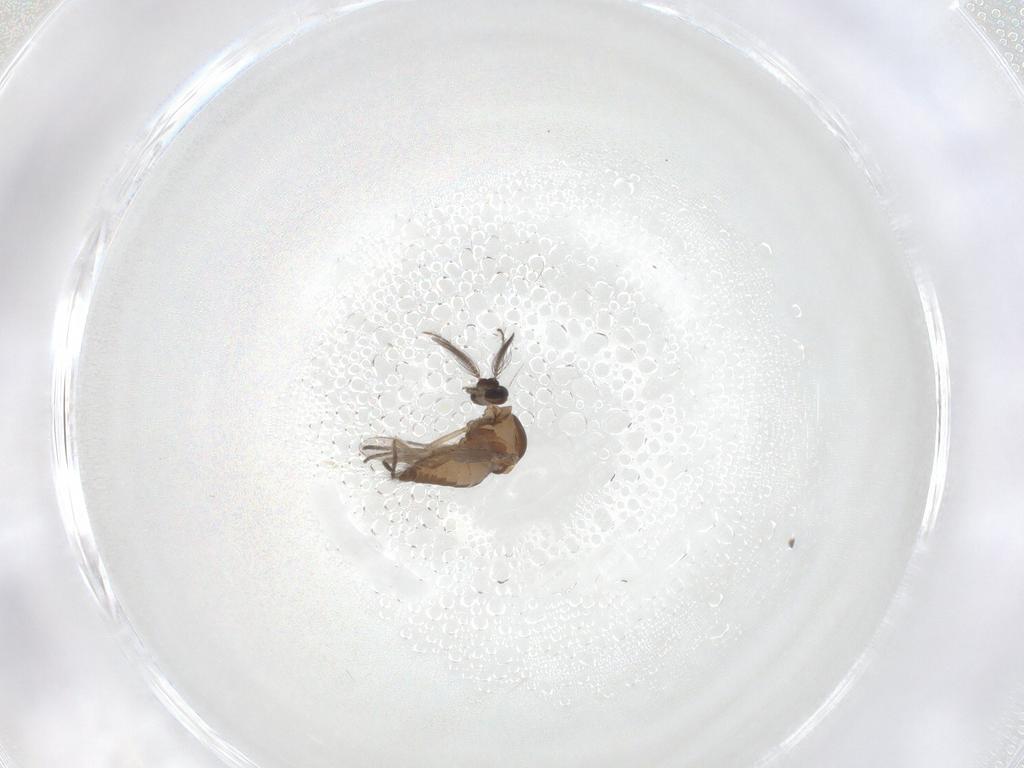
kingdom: Animalia
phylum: Arthropoda
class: Insecta
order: Diptera
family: Ceratopogonidae
